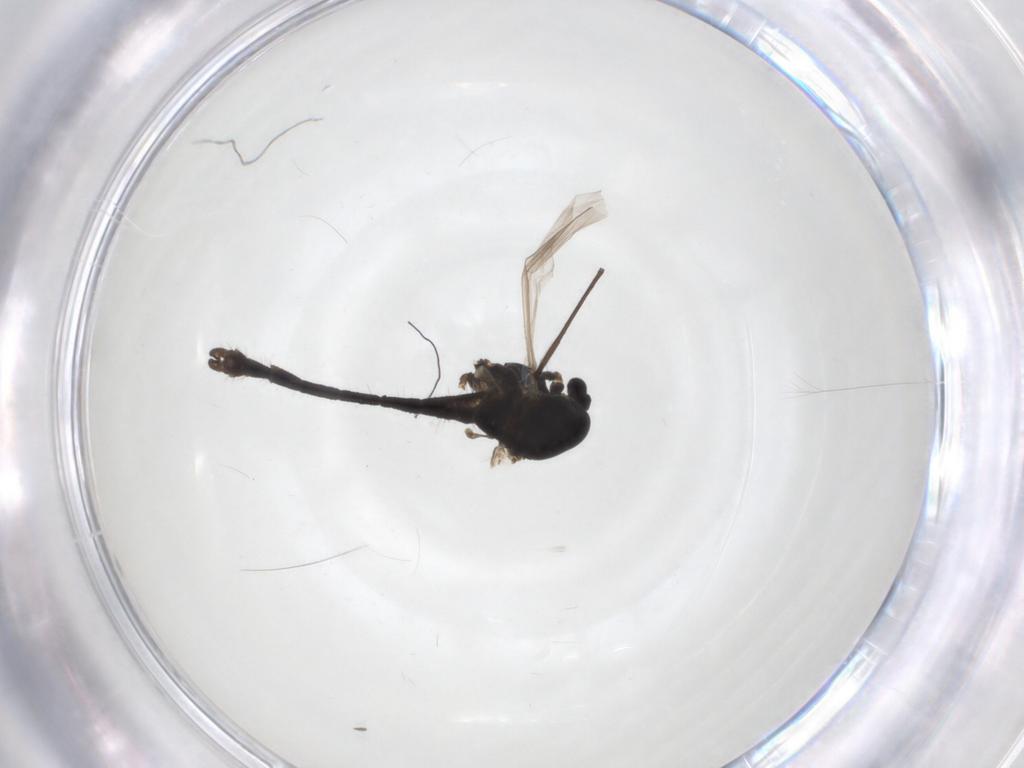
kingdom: Animalia
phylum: Arthropoda
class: Insecta
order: Diptera
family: Chironomidae
